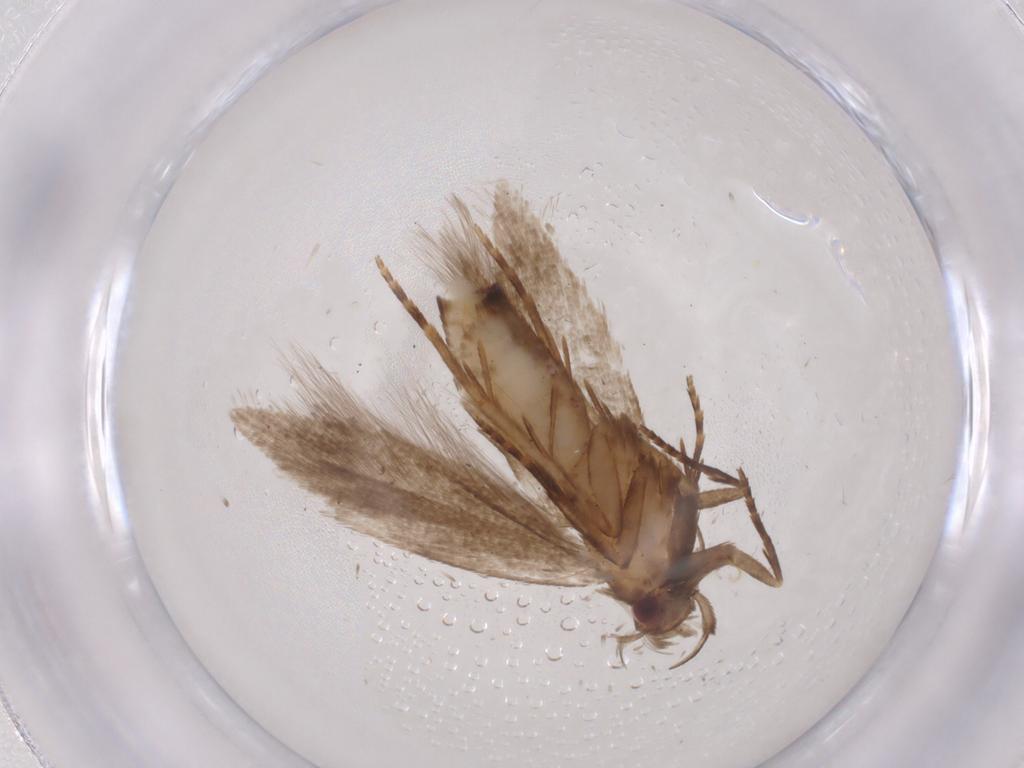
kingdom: Animalia
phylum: Arthropoda
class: Insecta
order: Lepidoptera
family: Gelechiidae
